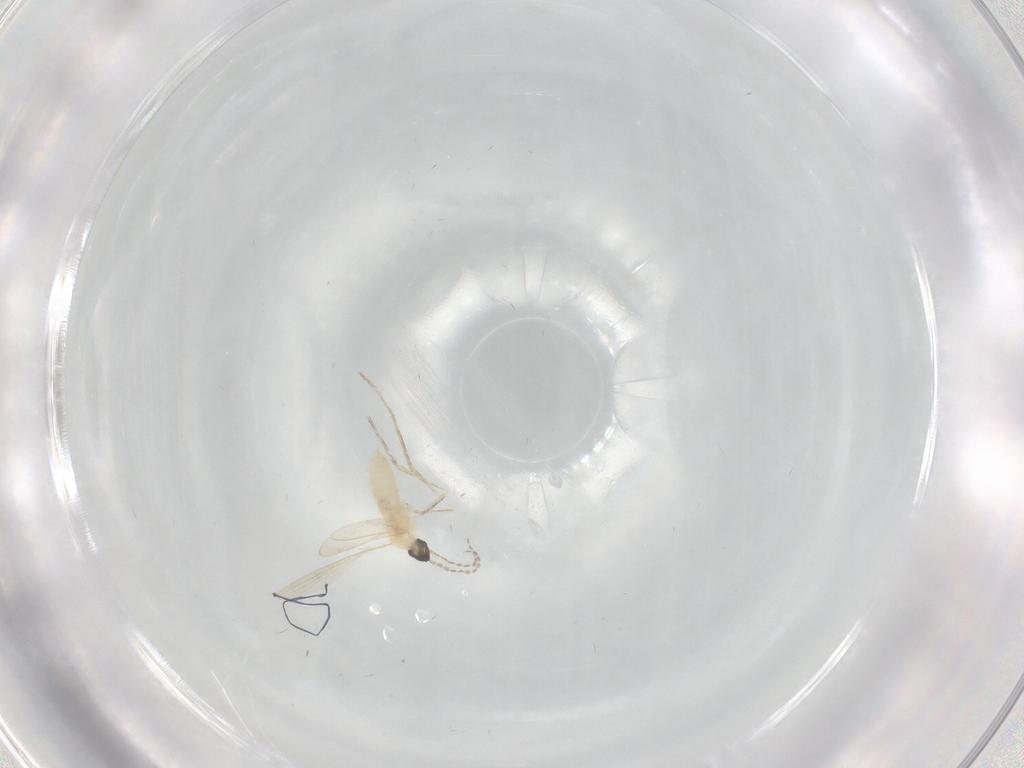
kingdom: Animalia
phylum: Arthropoda
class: Insecta
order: Diptera
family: Cecidomyiidae
